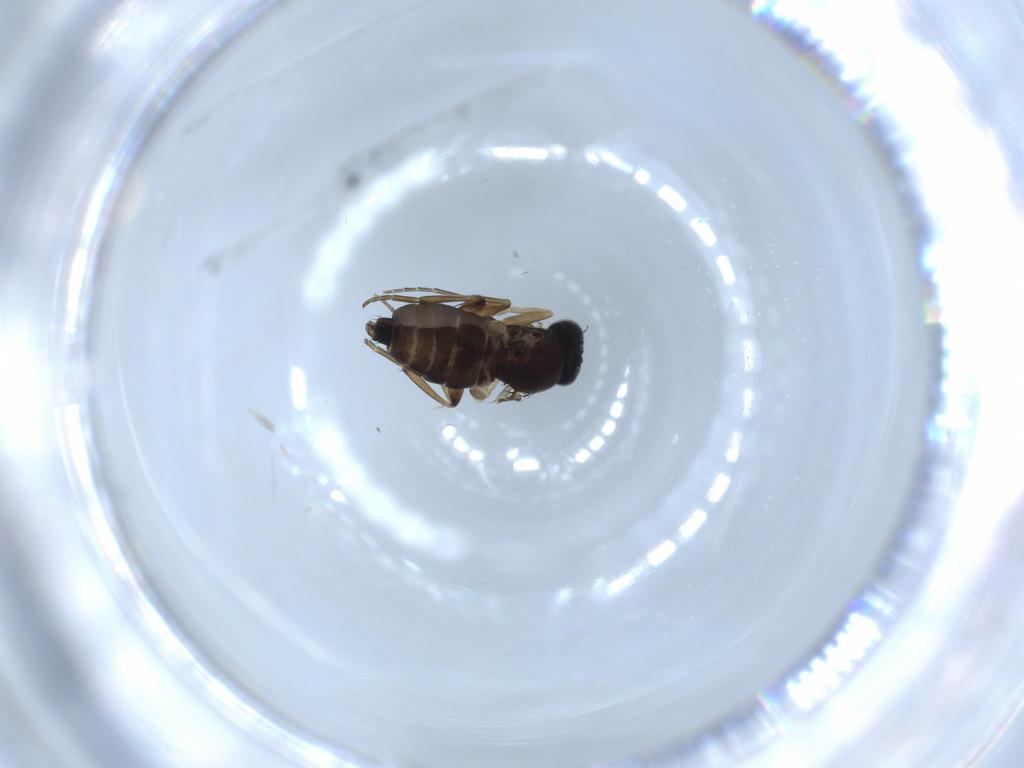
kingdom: Animalia
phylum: Arthropoda
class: Insecta
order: Diptera
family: Phoridae
